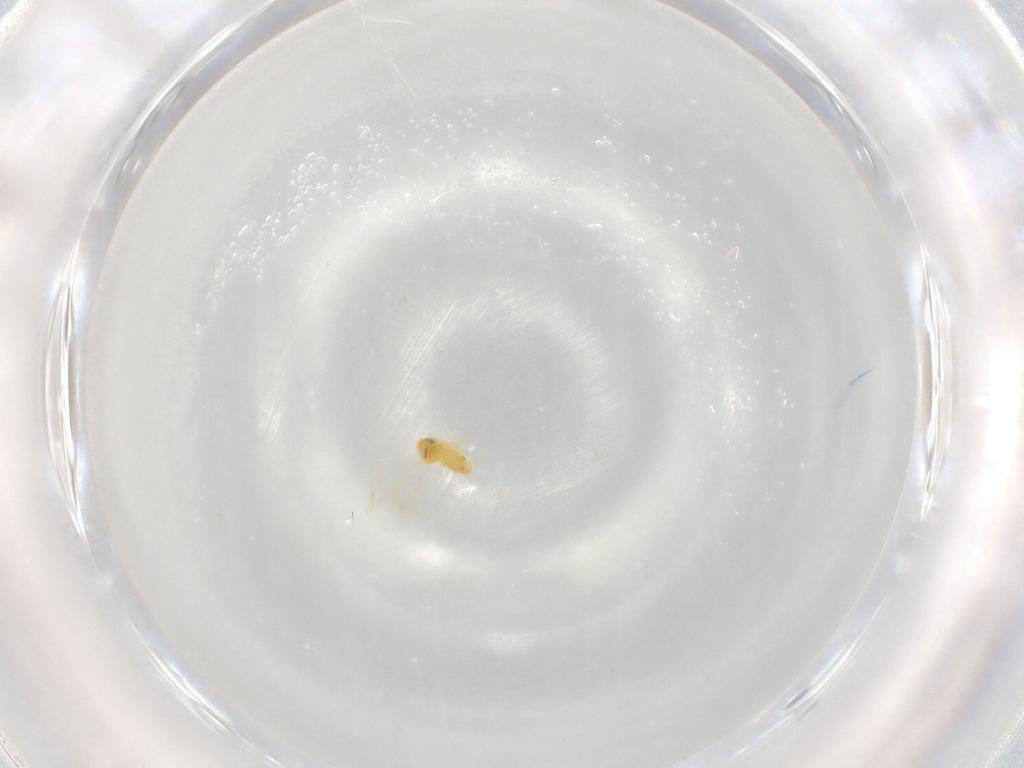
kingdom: Animalia
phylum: Arthropoda
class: Insecta
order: Hemiptera
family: Aleyrodidae
